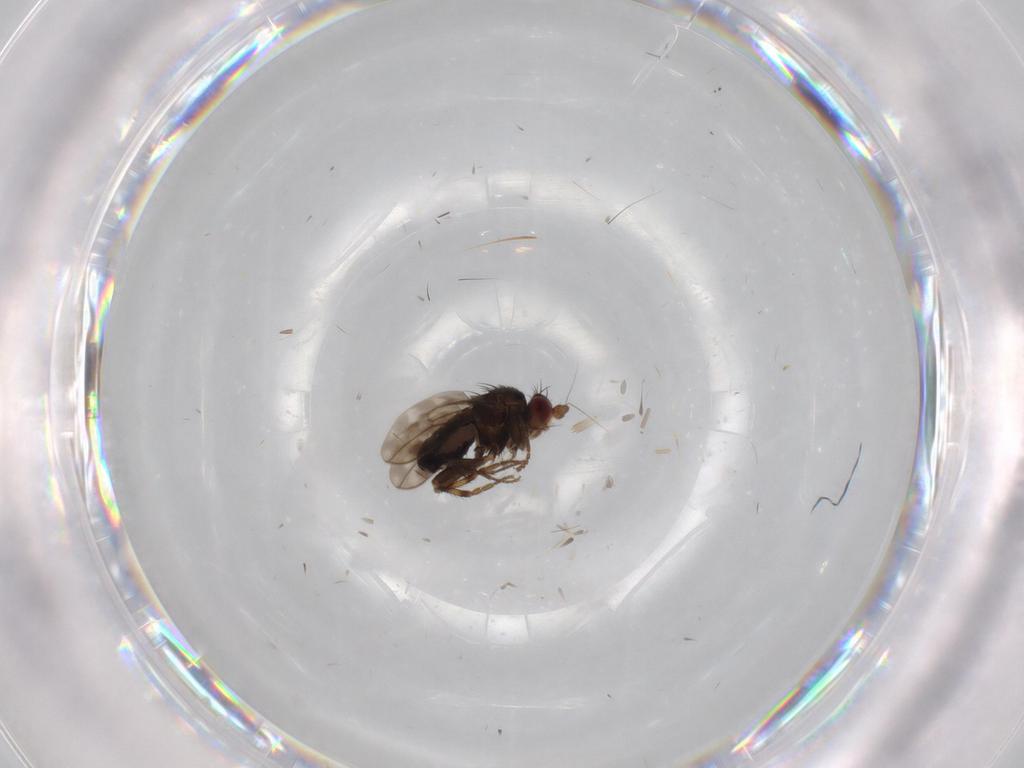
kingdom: Animalia
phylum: Arthropoda
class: Insecta
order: Diptera
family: Sphaeroceridae
